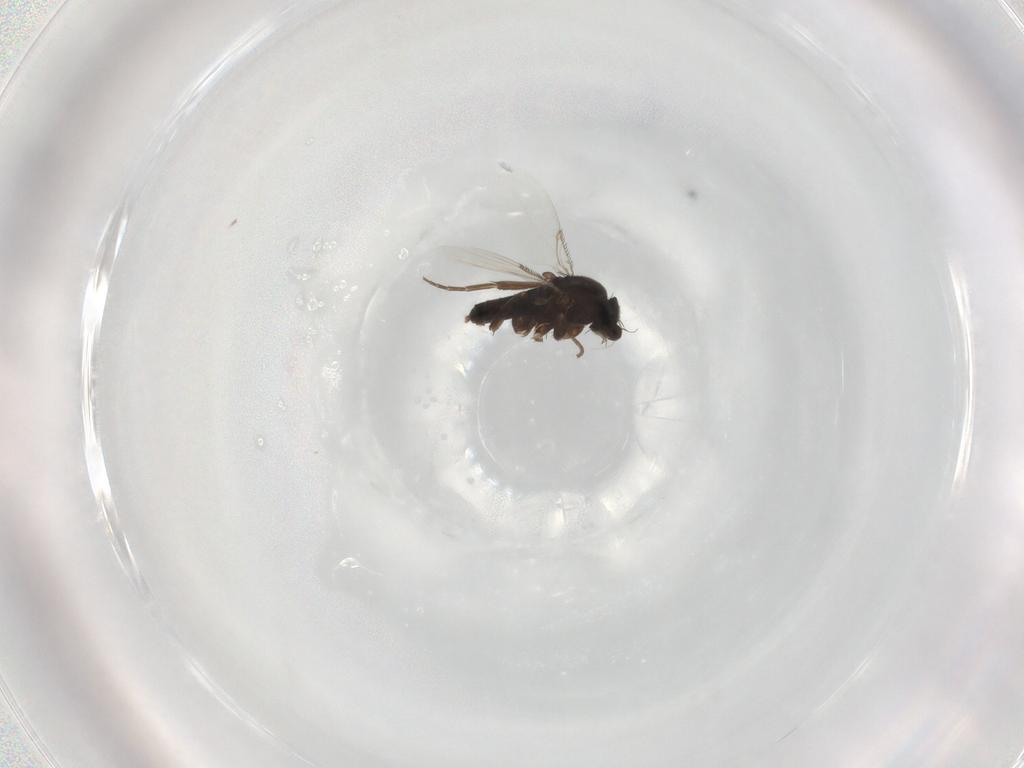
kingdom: Animalia
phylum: Arthropoda
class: Insecta
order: Diptera
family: Phoridae
